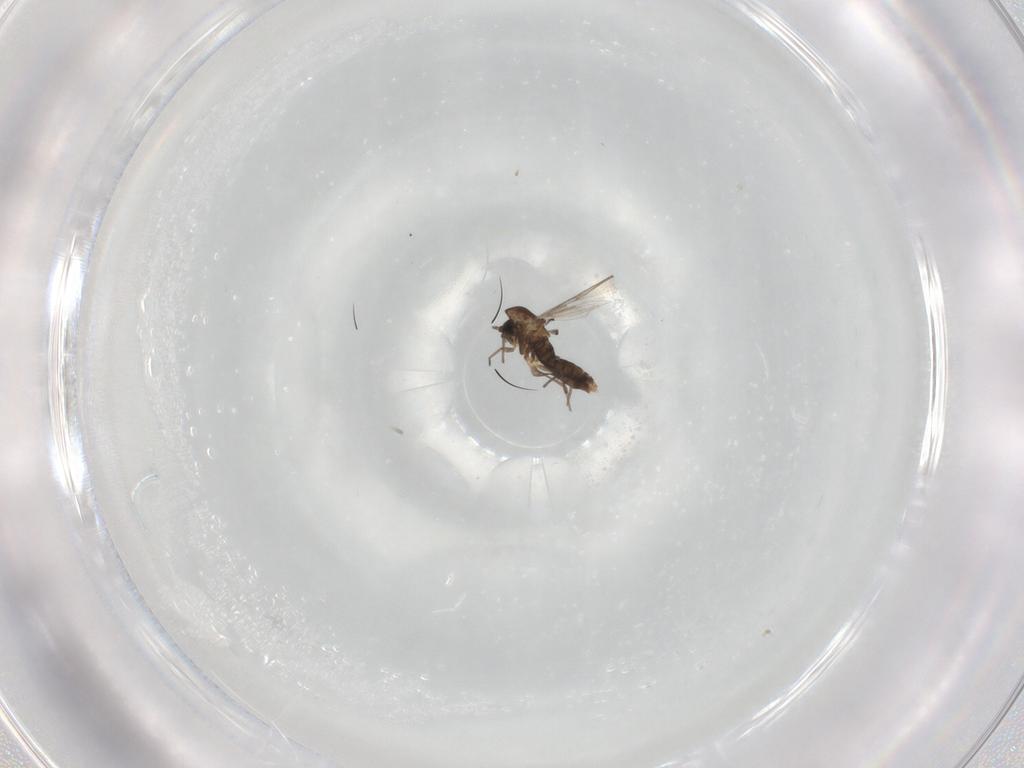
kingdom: Animalia
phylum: Arthropoda
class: Insecta
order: Diptera
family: Chironomidae
